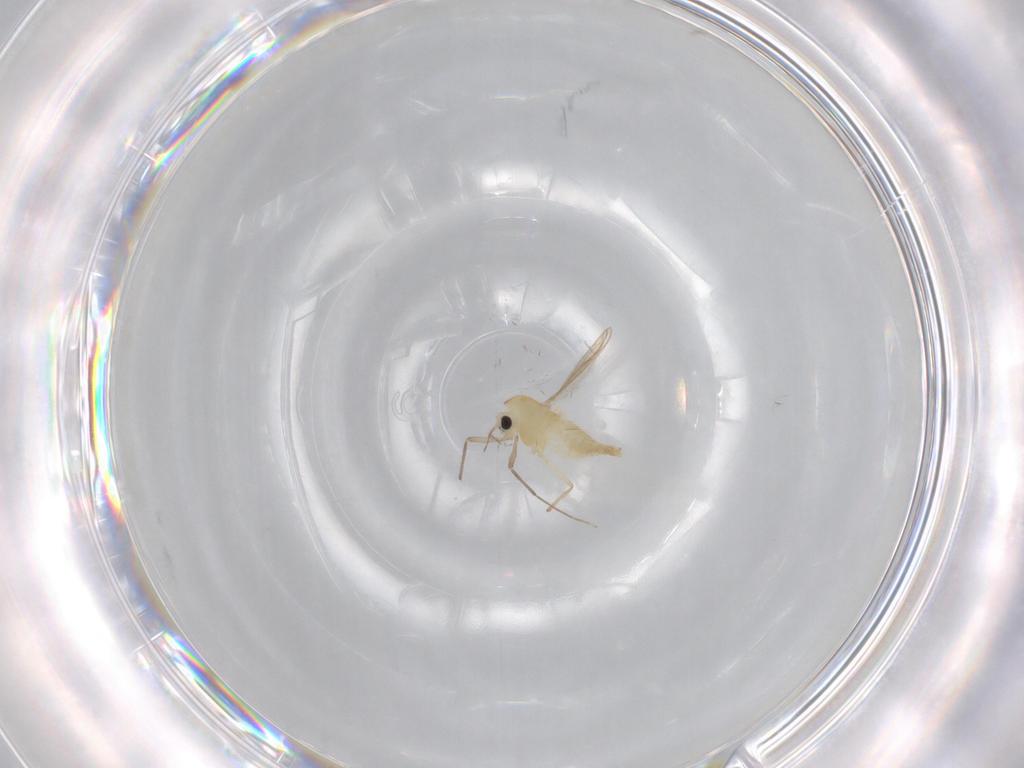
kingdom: Animalia
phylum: Arthropoda
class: Insecta
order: Diptera
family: Chironomidae
